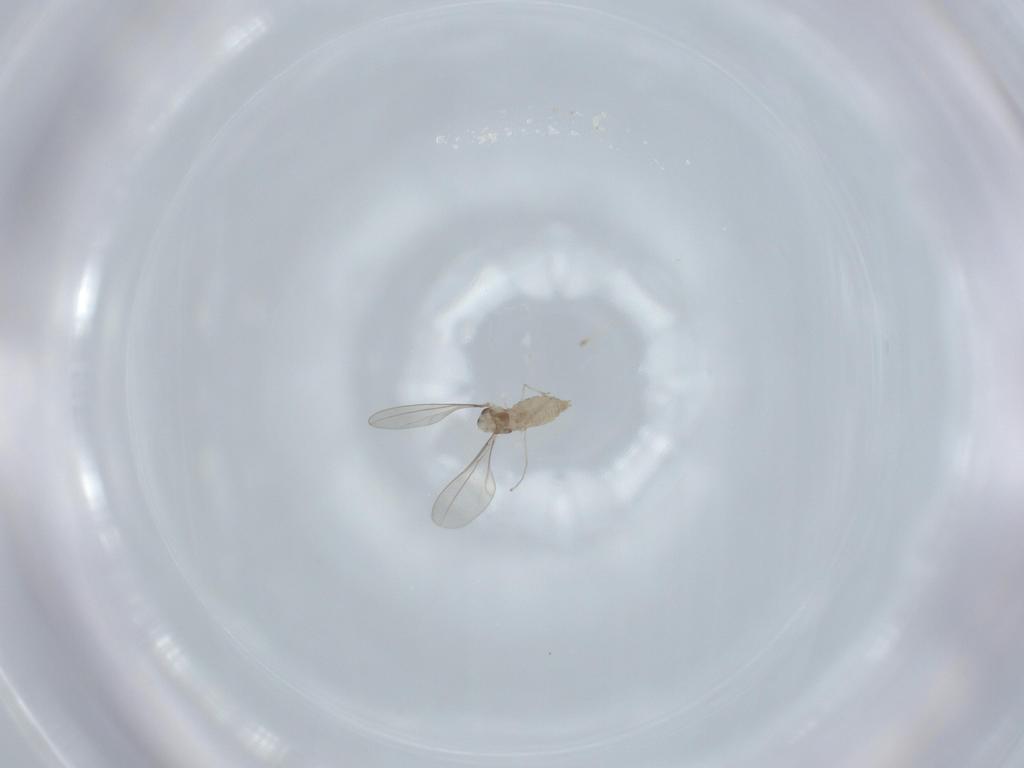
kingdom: Animalia
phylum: Arthropoda
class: Insecta
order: Diptera
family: Cecidomyiidae
